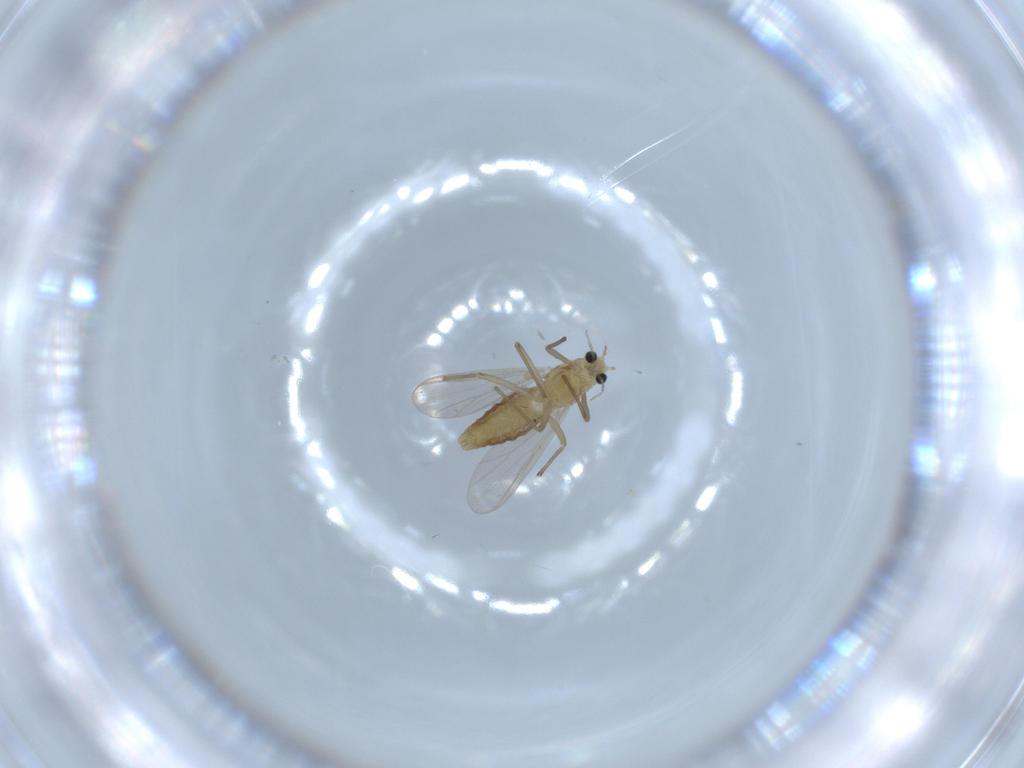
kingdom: Animalia
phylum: Arthropoda
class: Insecta
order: Diptera
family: Chironomidae
